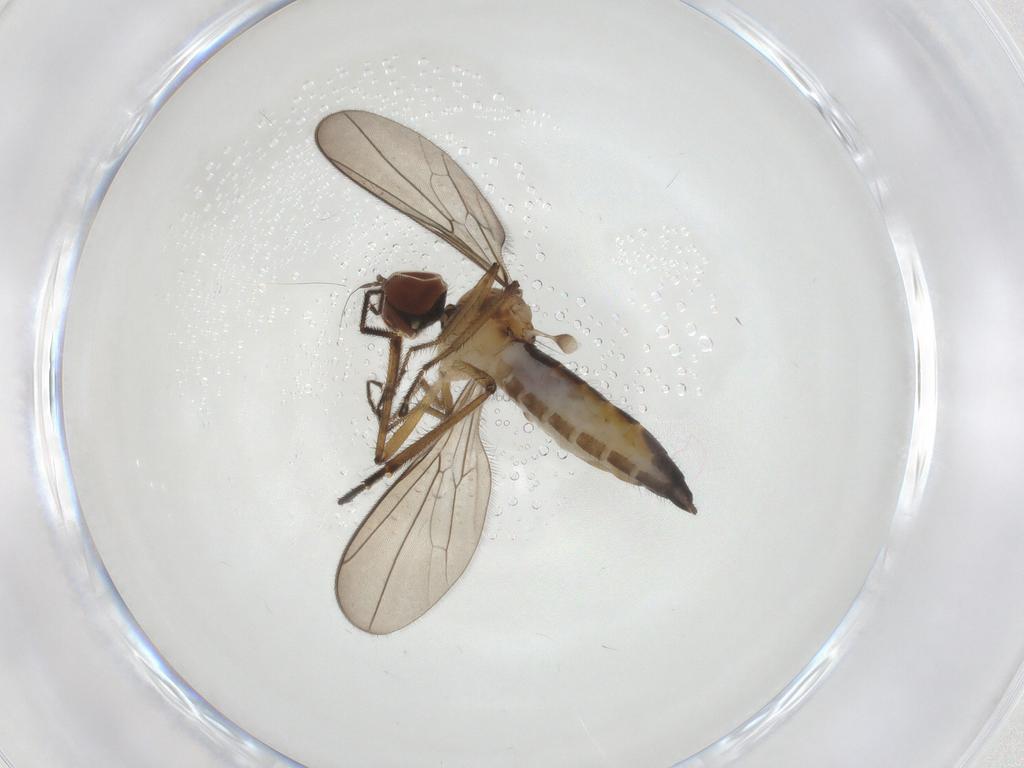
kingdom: Animalia
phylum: Arthropoda
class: Insecta
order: Diptera
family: Hybotidae
